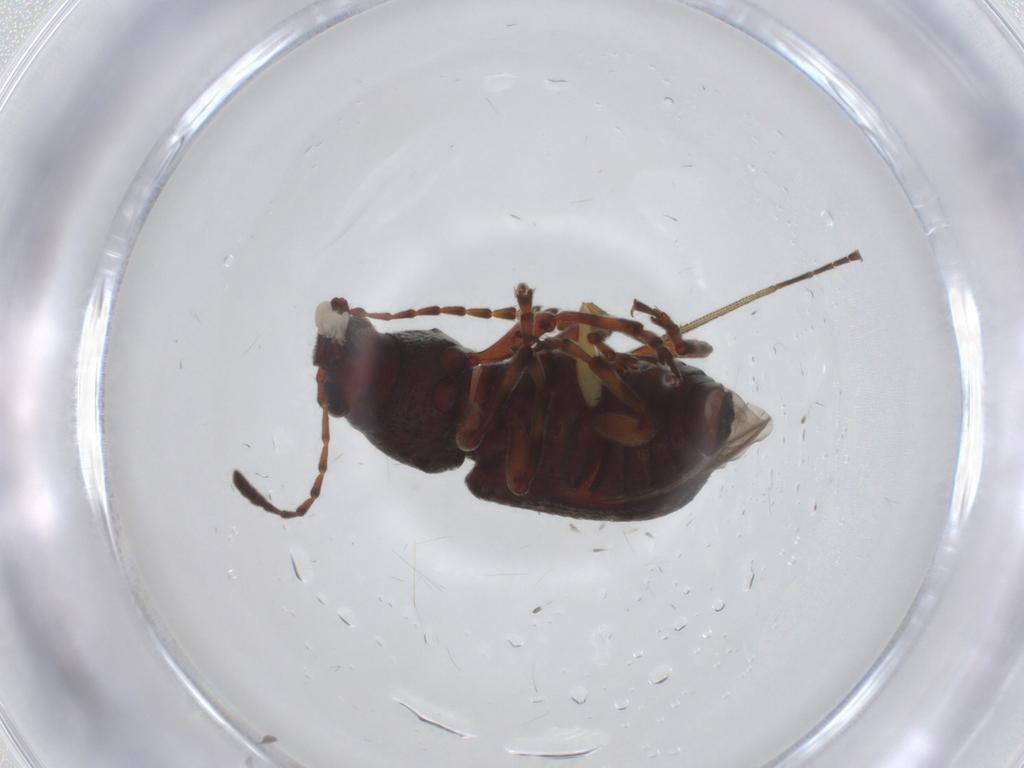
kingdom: Animalia
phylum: Arthropoda
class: Insecta
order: Coleoptera
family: Anthribidae
